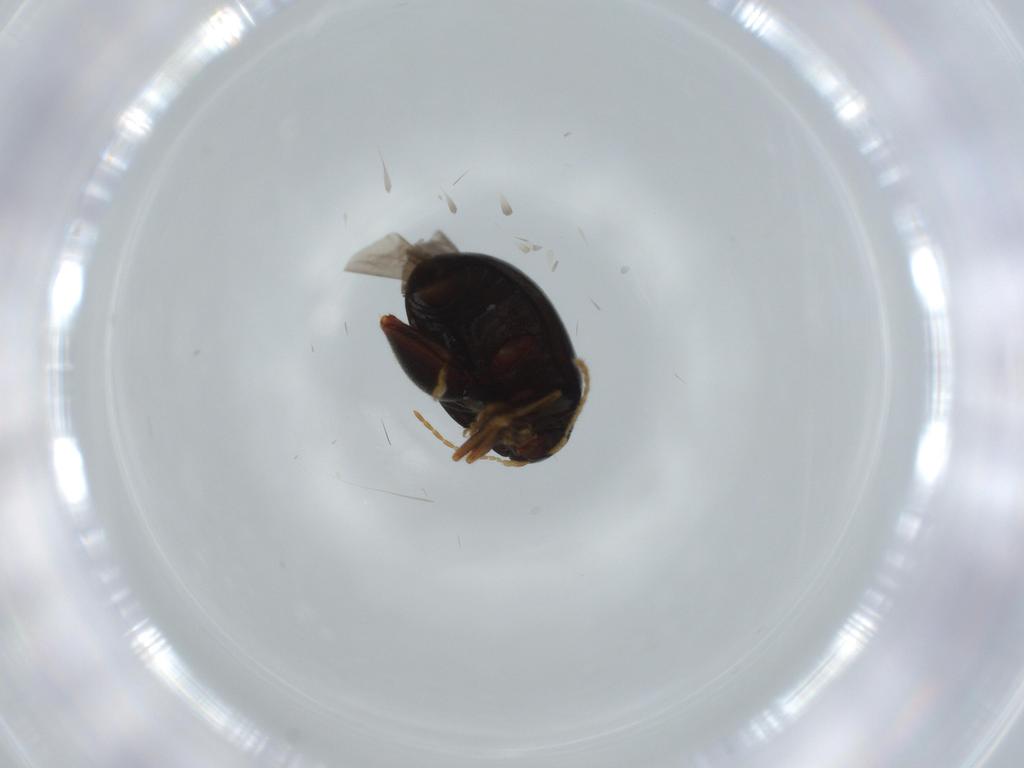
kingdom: Animalia
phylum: Arthropoda
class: Insecta
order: Coleoptera
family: Chrysomelidae
